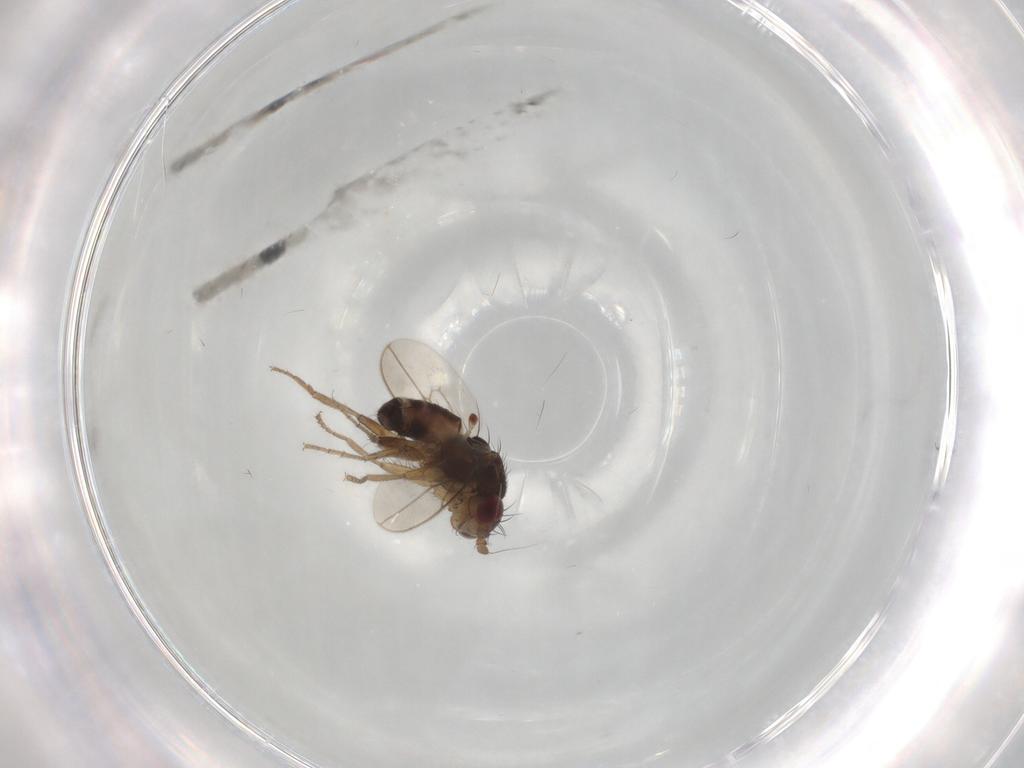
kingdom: Animalia
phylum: Arthropoda
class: Insecta
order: Diptera
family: Sphaeroceridae
